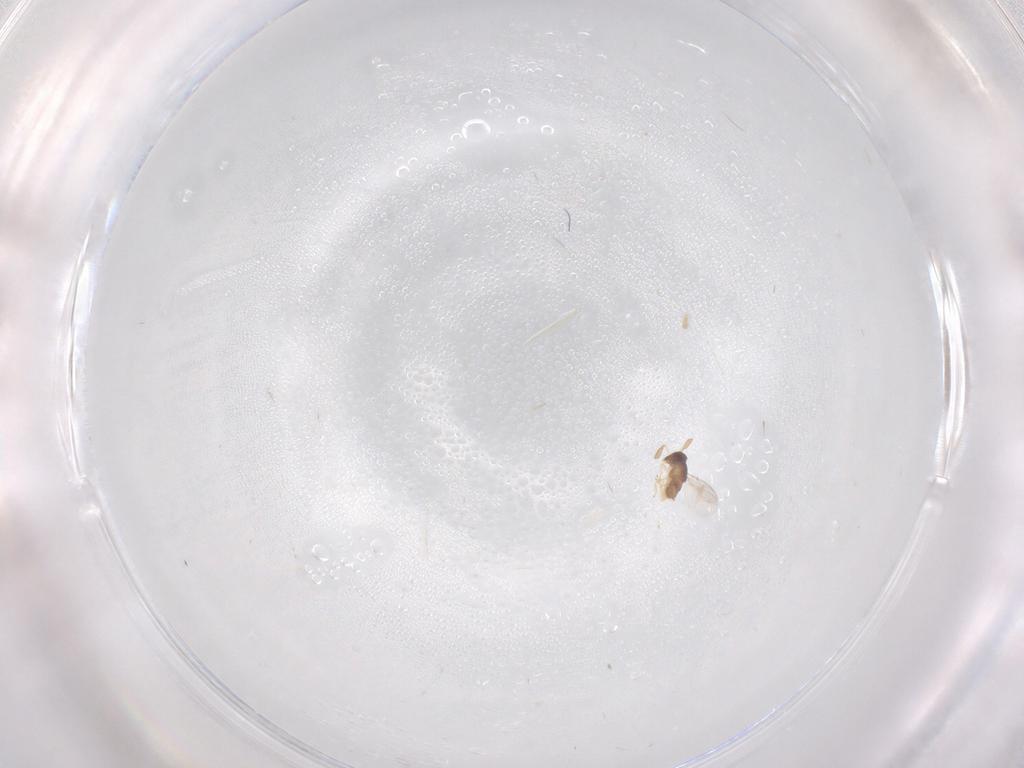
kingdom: Animalia
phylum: Arthropoda
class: Insecta
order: Hymenoptera
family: Encyrtidae
